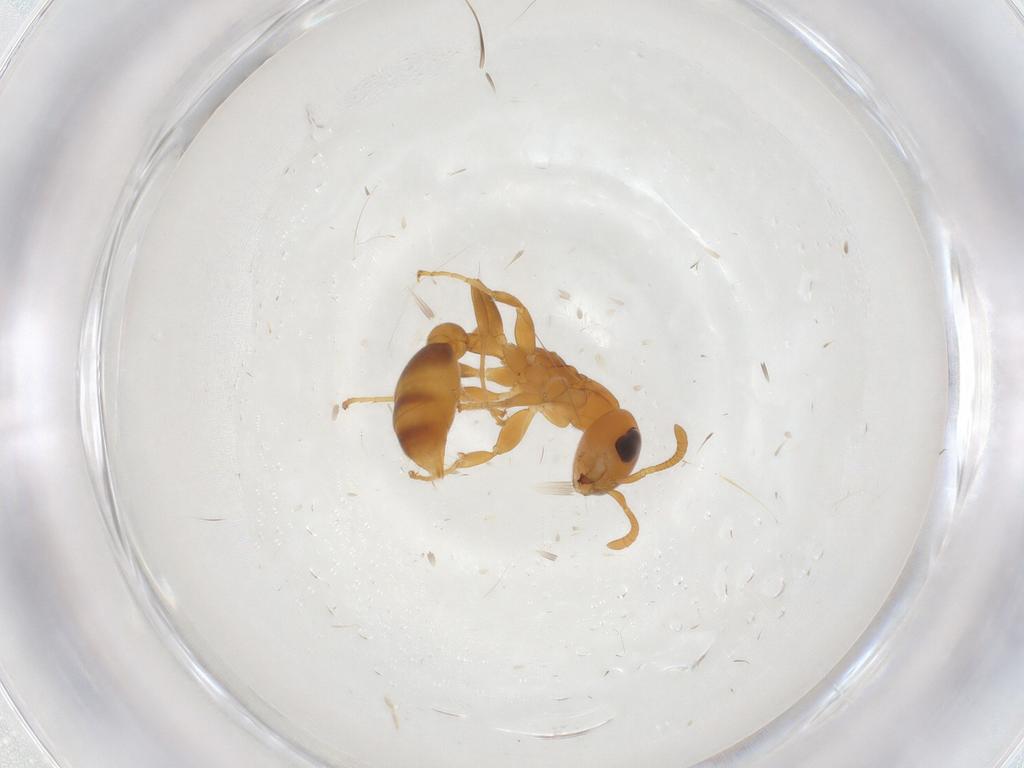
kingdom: Animalia
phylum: Arthropoda
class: Insecta
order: Hymenoptera
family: Formicidae
